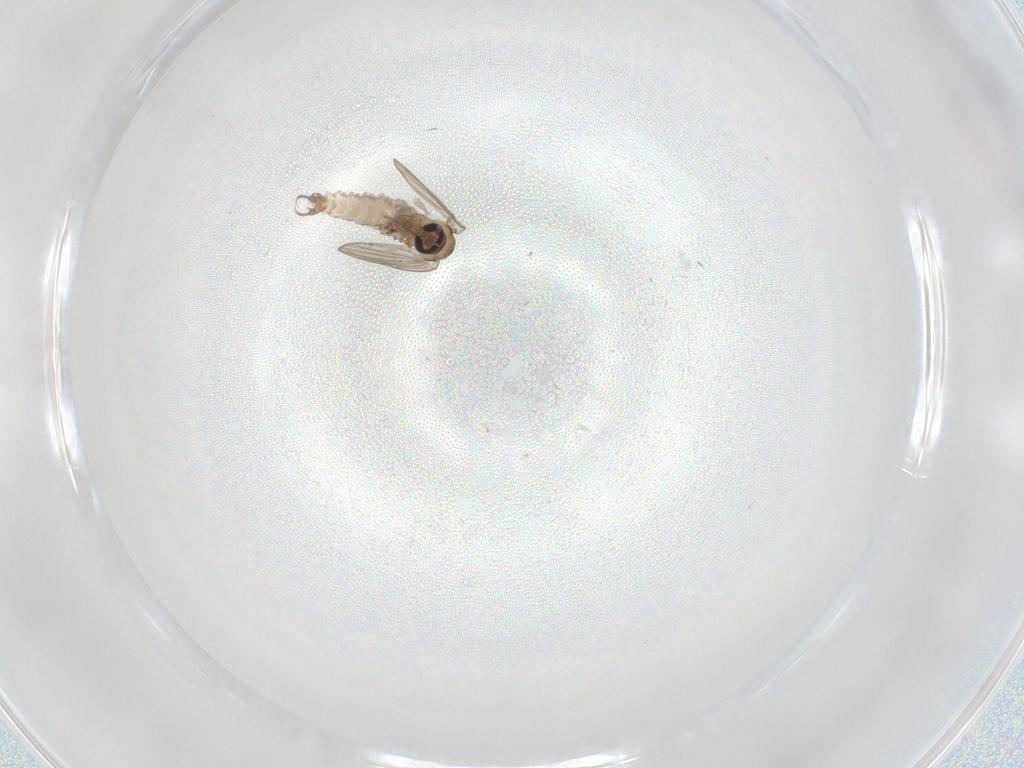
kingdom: Animalia
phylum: Arthropoda
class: Insecta
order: Diptera
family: Psychodidae
